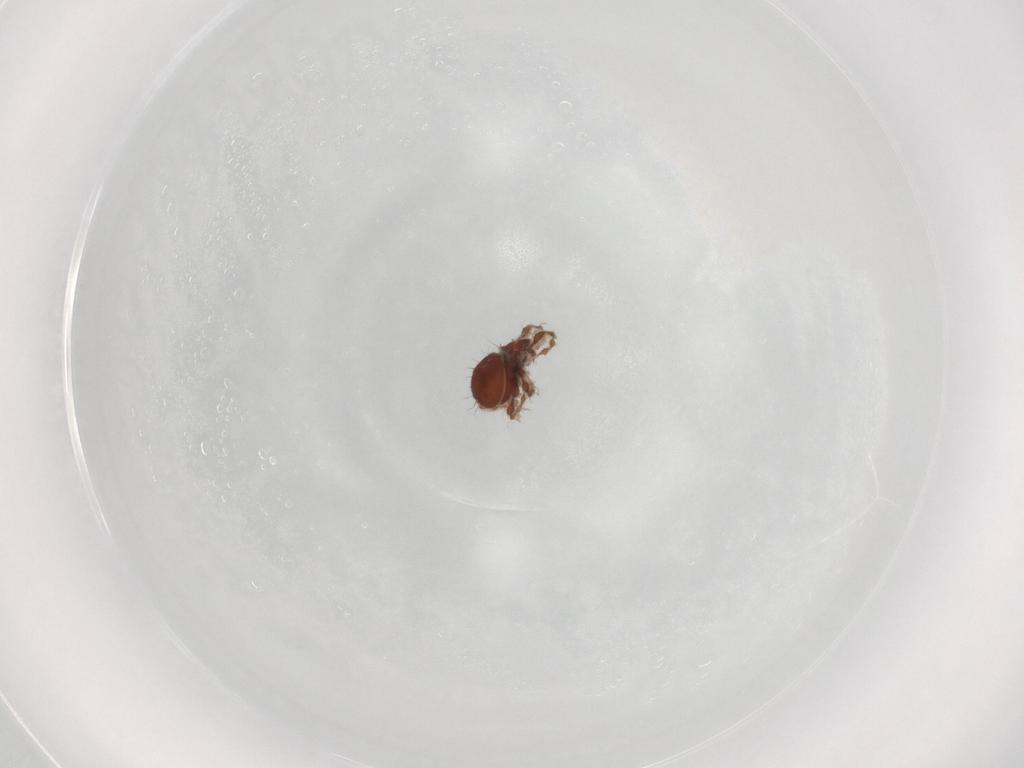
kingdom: Animalia
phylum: Arthropoda
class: Arachnida
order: Sarcoptiformes
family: Damaeidae
